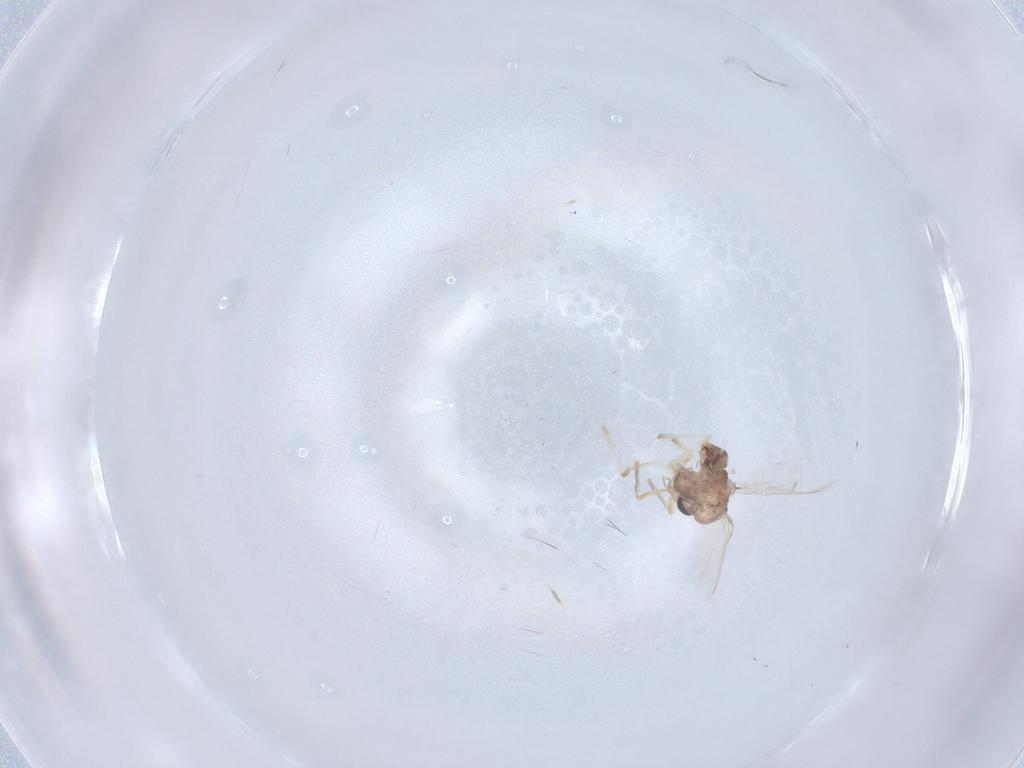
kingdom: Animalia
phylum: Arthropoda
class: Insecta
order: Diptera
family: Chironomidae
